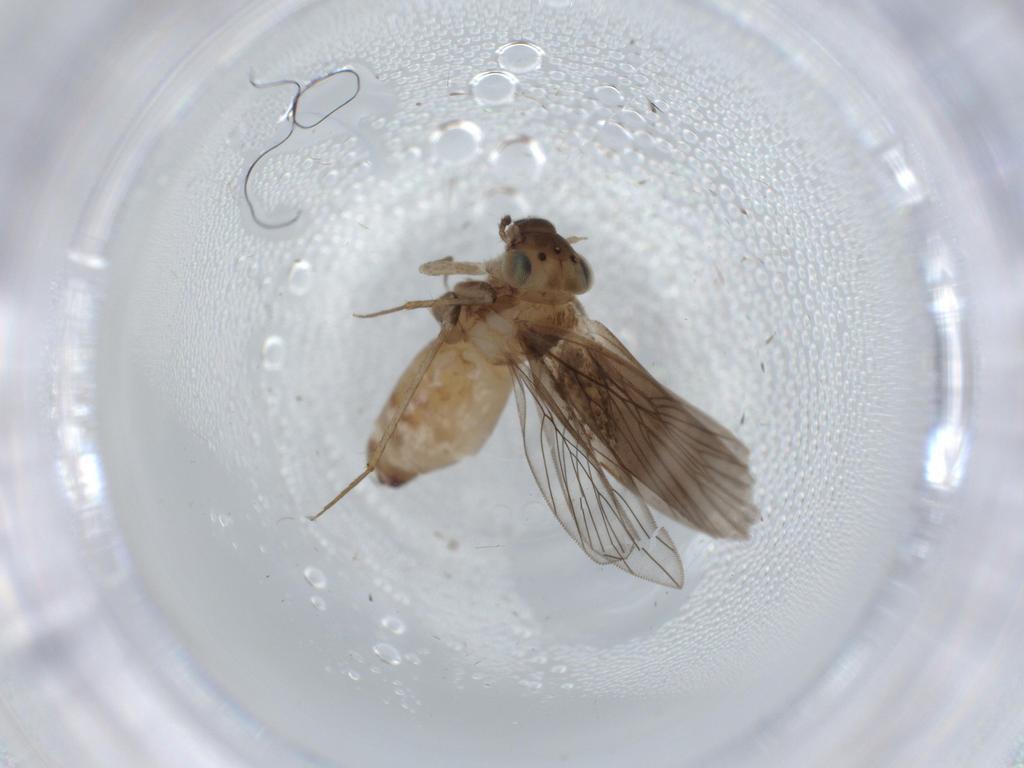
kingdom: Animalia
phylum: Arthropoda
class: Insecta
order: Psocodea
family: Lepidopsocidae
